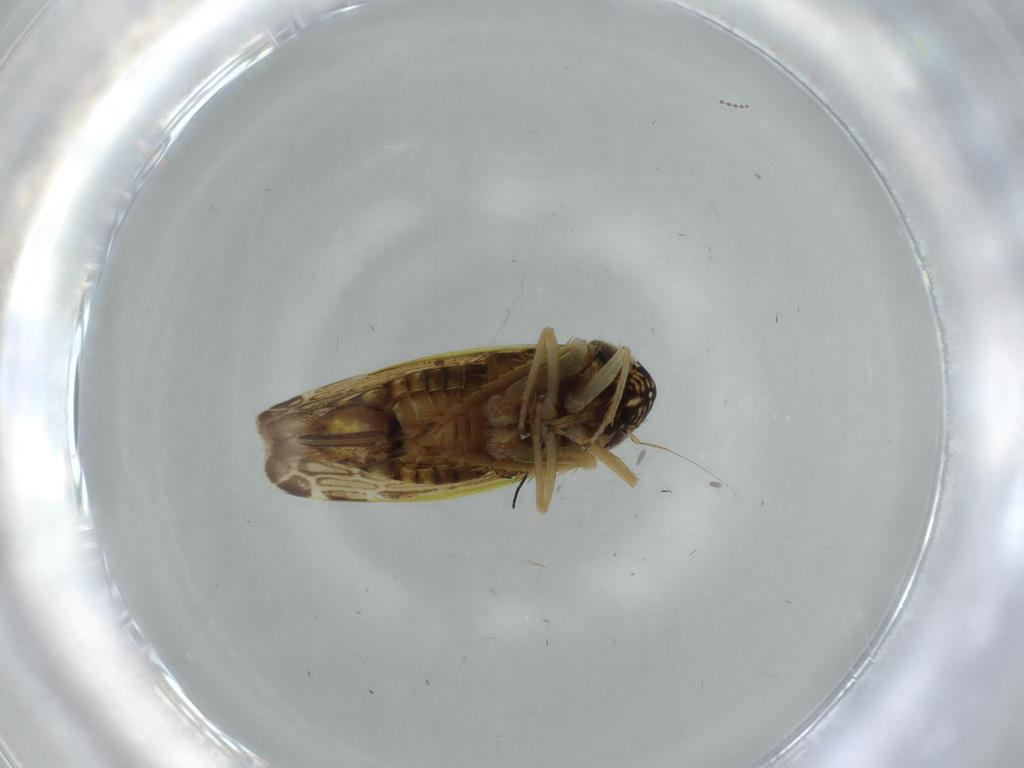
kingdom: Animalia
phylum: Arthropoda
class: Insecta
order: Hemiptera
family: Cicadellidae
